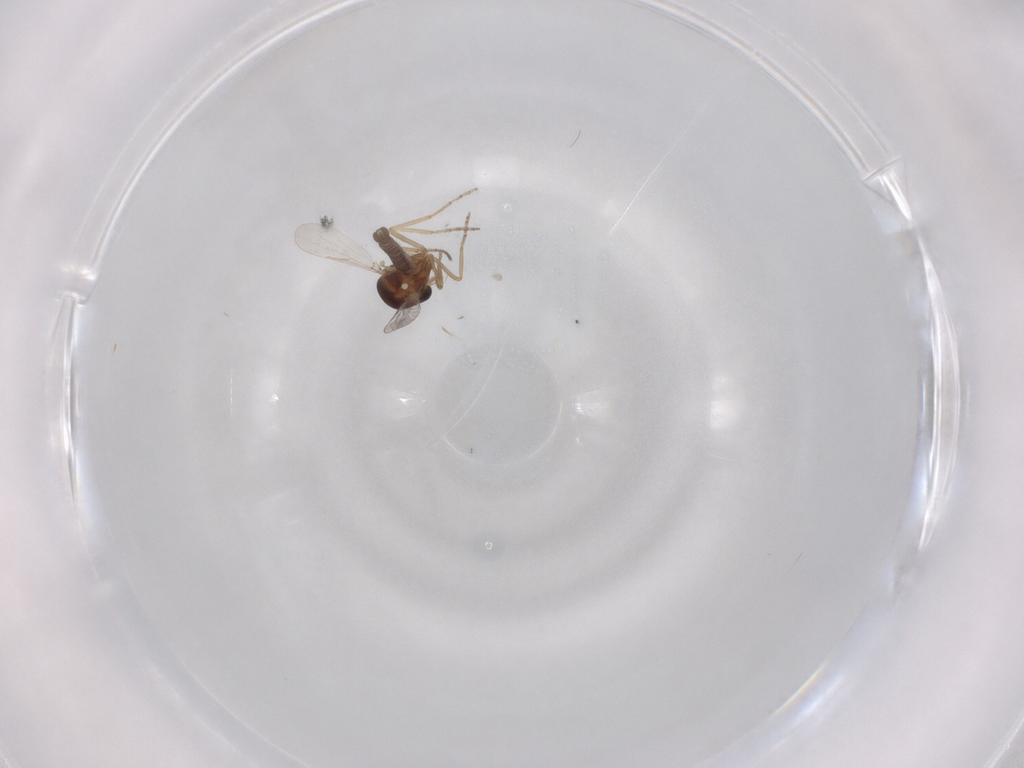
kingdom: Animalia
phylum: Arthropoda
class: Insecta
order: Diptera
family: Ceratopogonidae
